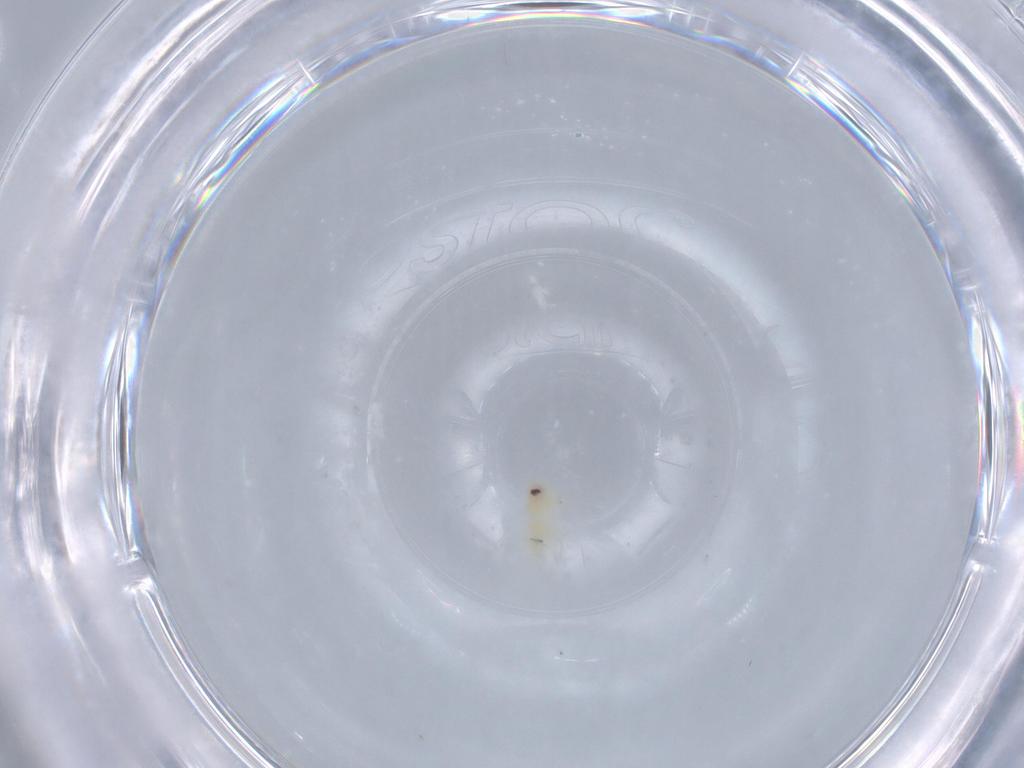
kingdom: Animalia
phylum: Arthropoda
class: Insecta
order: Hemiptera
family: Aleyrodidae
